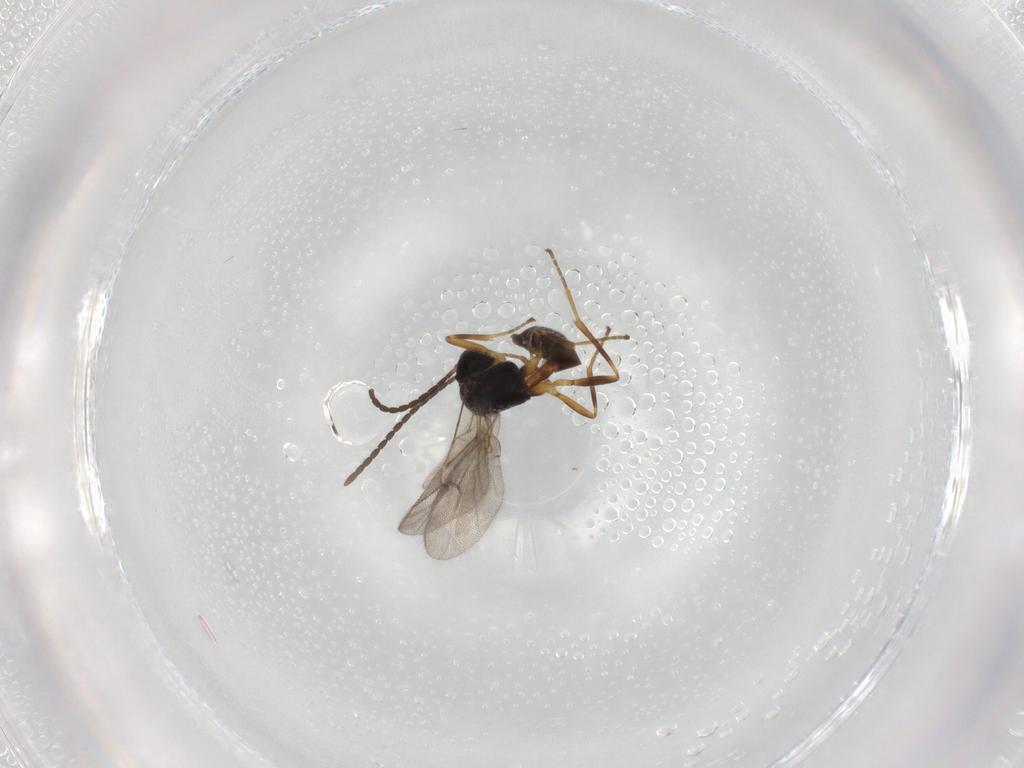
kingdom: Animalia
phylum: Arthropoda
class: Insecta
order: Hymenoptera
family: Braconidae
